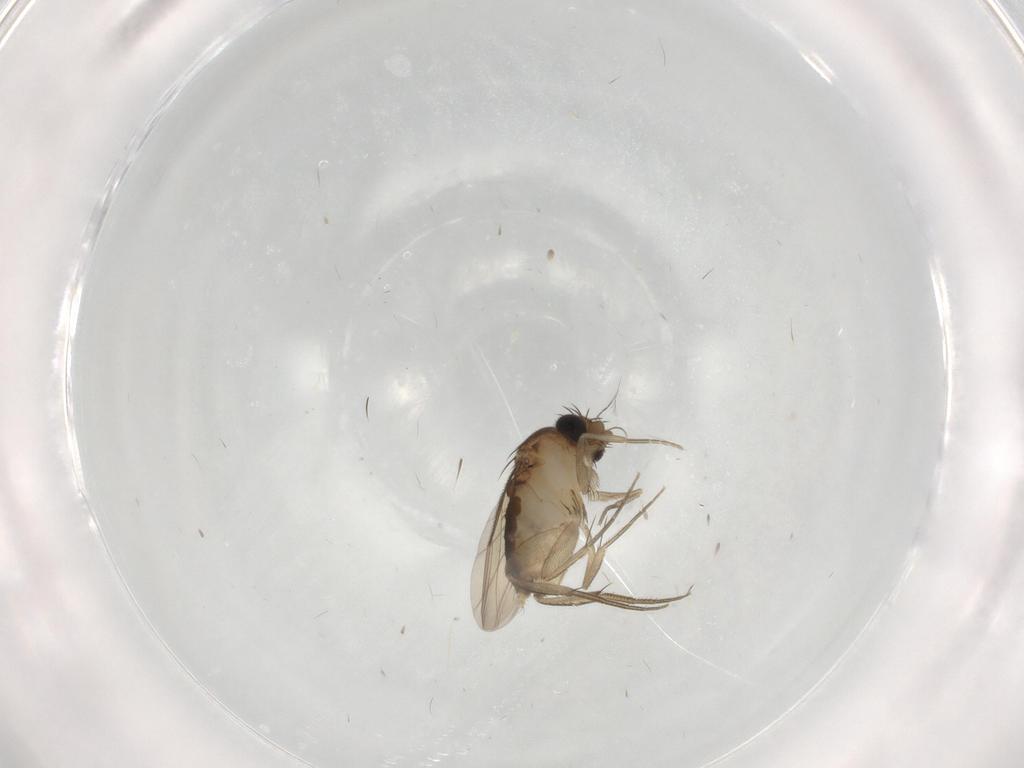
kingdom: Animalia
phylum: Arthropoda
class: Insecta
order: Diptera
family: Phoridae
